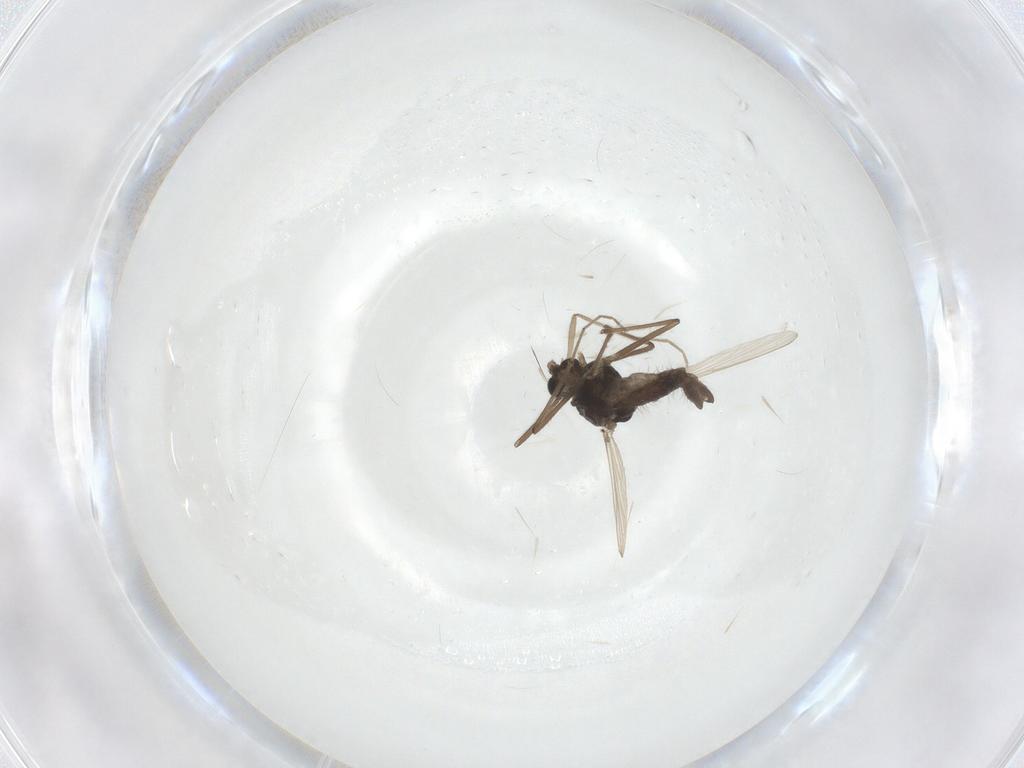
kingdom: Animalia
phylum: Arthropoda
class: Insecta
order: Diptera
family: Chironomidae
